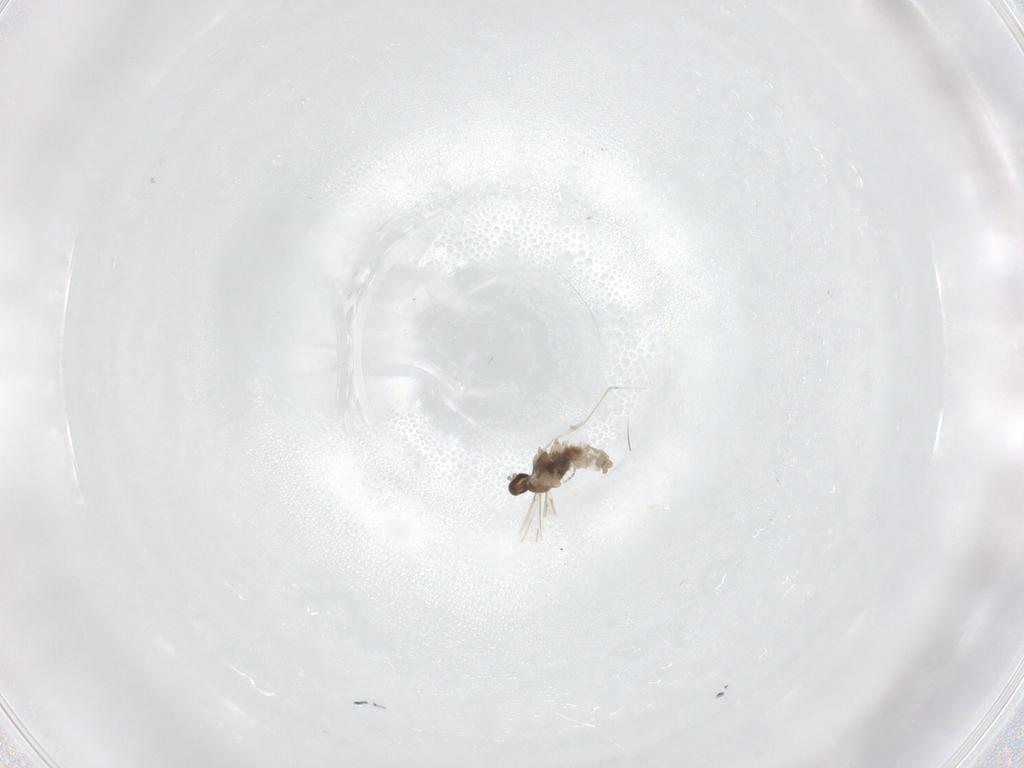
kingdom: Animalia
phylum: Arthropoda
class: Insecta
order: Diptera
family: Cecidomyiidae
